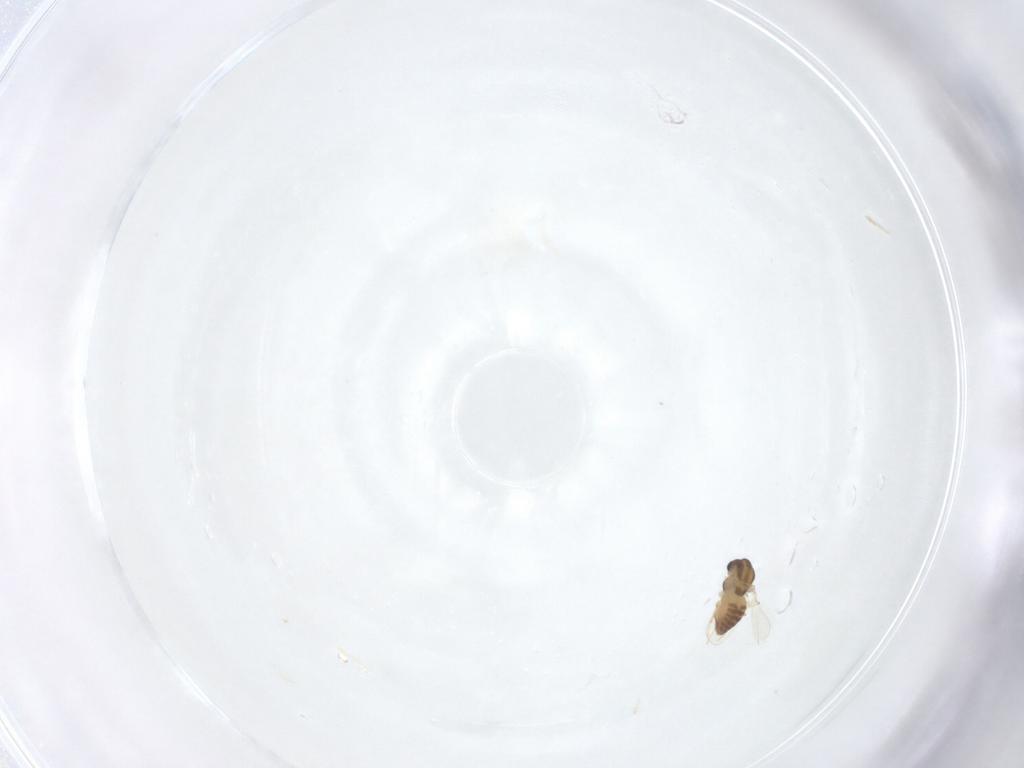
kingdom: Animalia
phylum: Arthropoda
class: Insecta
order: Diptera
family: Chironomidae
